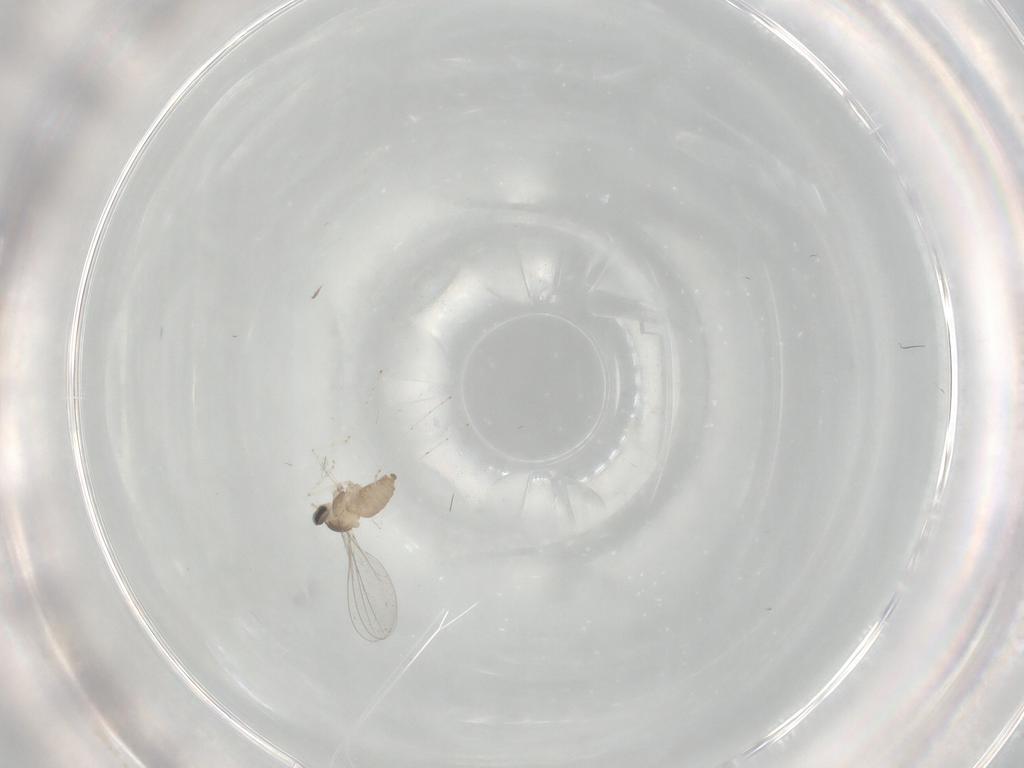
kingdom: Animalia
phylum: Arthropoda
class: Insecta
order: Diptera
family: Cecidomyiidae
